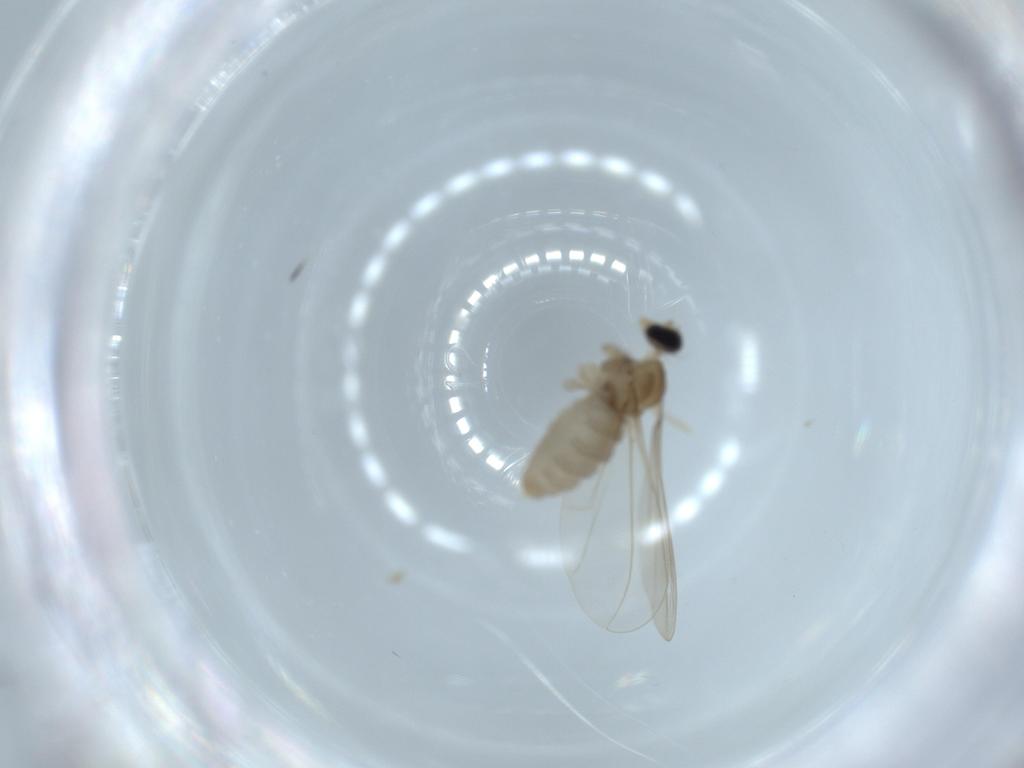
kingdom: Animalia
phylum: Arthropoda
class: Insecta
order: Diptera
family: Cecidomyiidae
